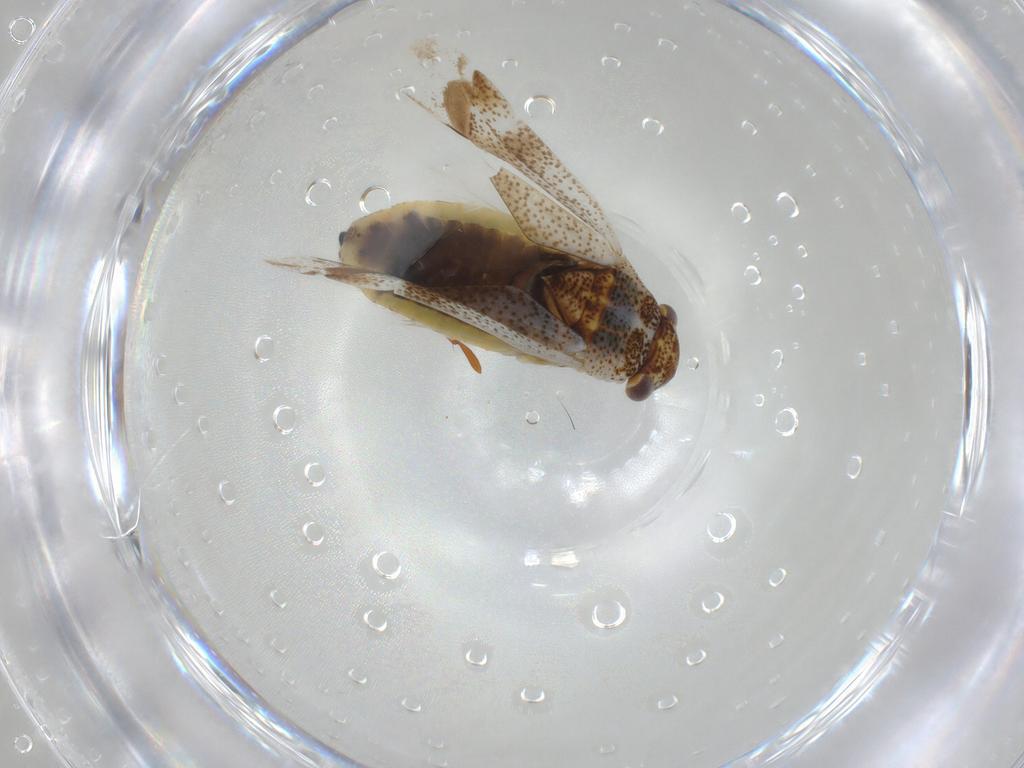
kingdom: Animalia
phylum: Arthropoda
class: Insecta
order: Hemiptera
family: Miridae
